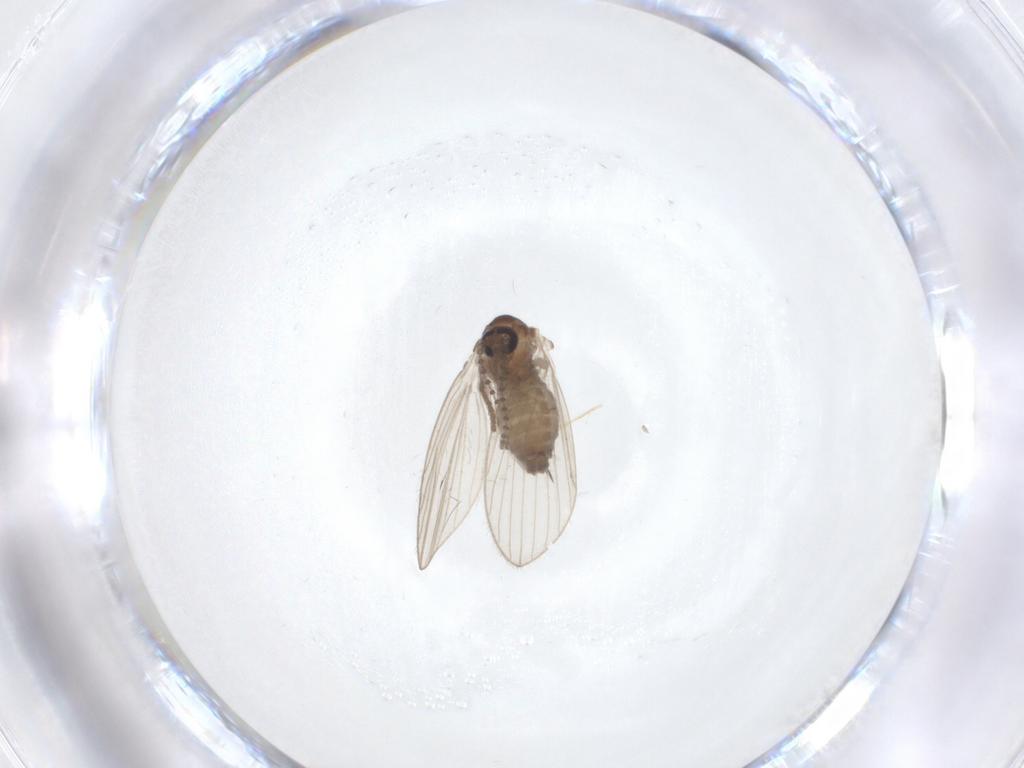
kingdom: Animalia
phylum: Arthropoda
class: Insecta
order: Diptera
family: Psychodidae
